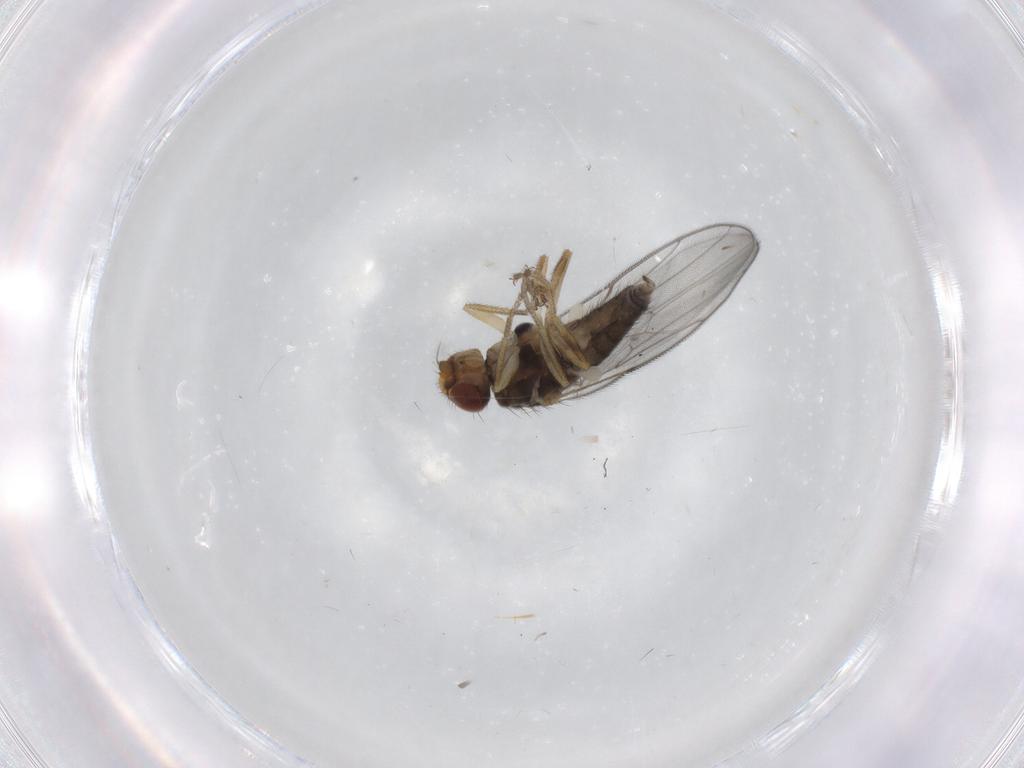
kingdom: Animalia
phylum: Arthropoda
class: Insecta
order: Diptera
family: Chloropidae
